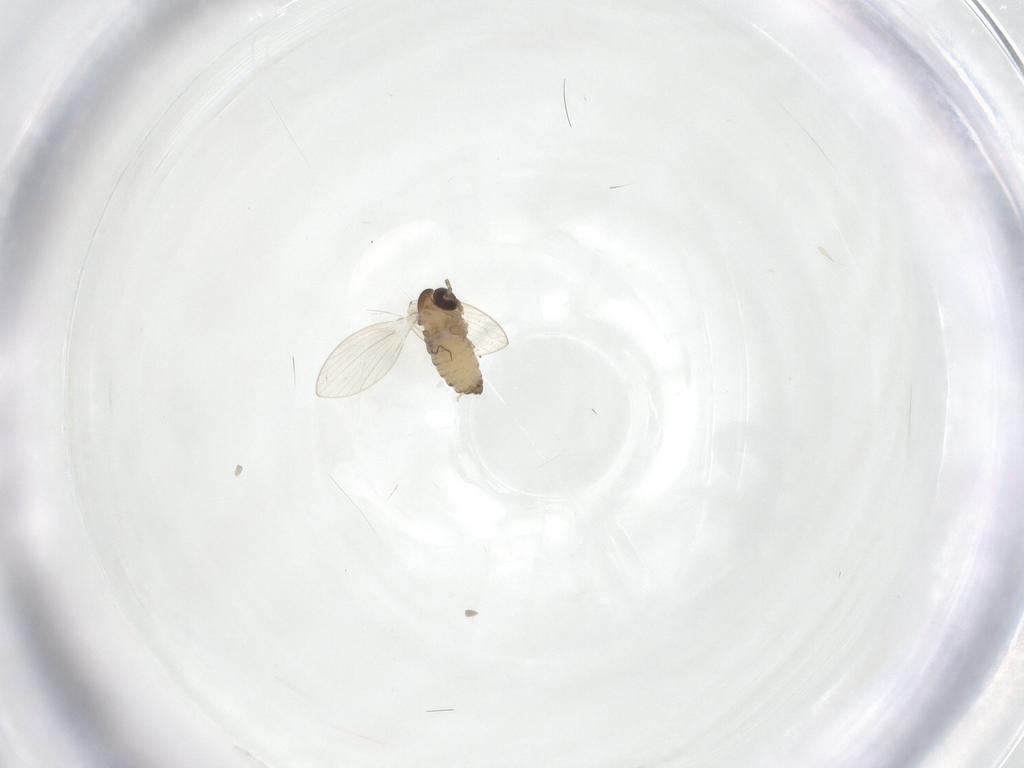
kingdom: Animalia
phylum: Arthropoda
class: Insecta
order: Diptera
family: Psychodidae
